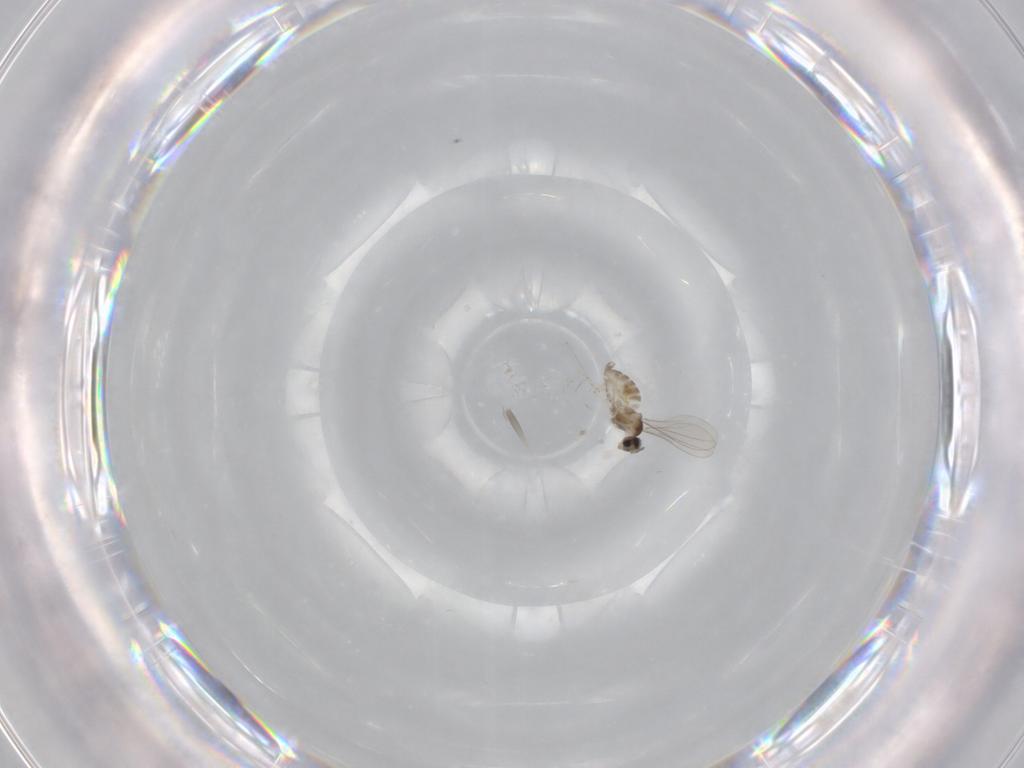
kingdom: Animalia
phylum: Arthropoda
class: Insecta
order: Diptera
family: Cecidomyiidae
